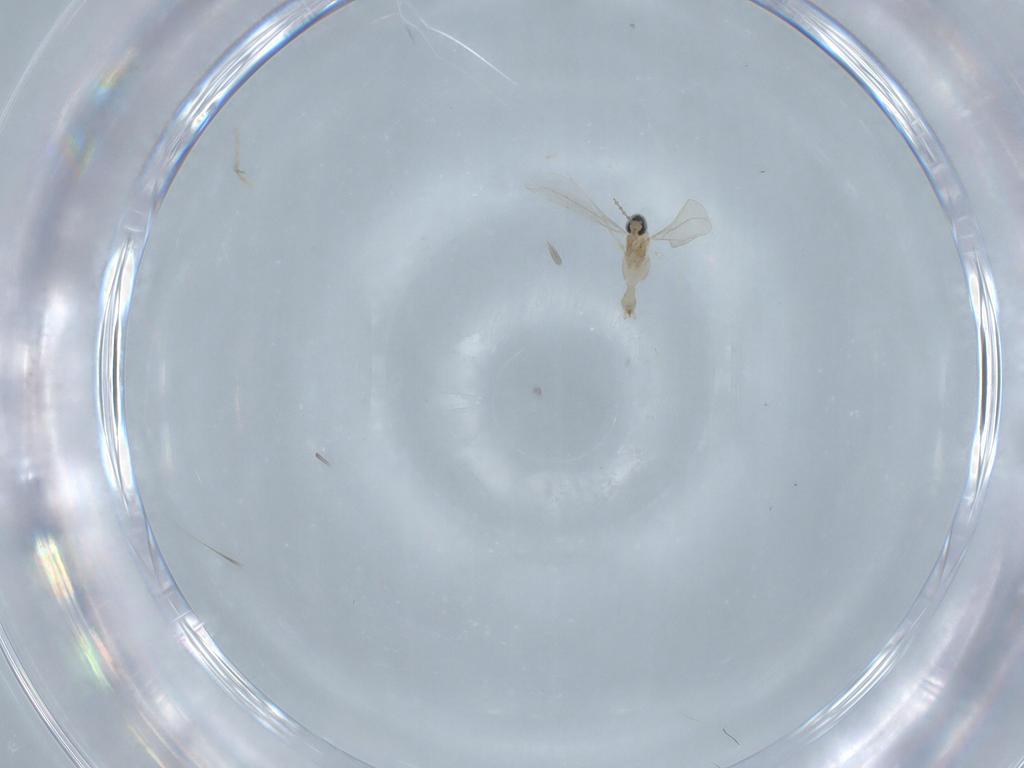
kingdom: Animalia
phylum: Arthropoda
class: Insecta
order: Diptera
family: Cecidomyiidae
